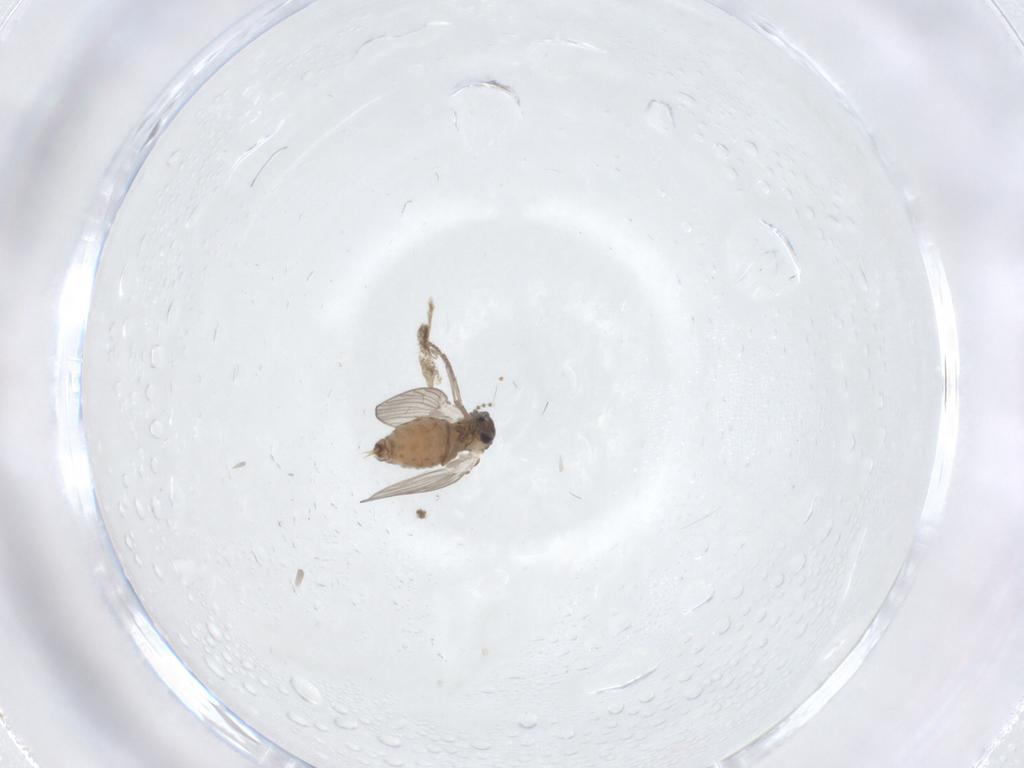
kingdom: Animalia
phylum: Arthropoda
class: Insecta
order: Diptera
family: Psychodidae
